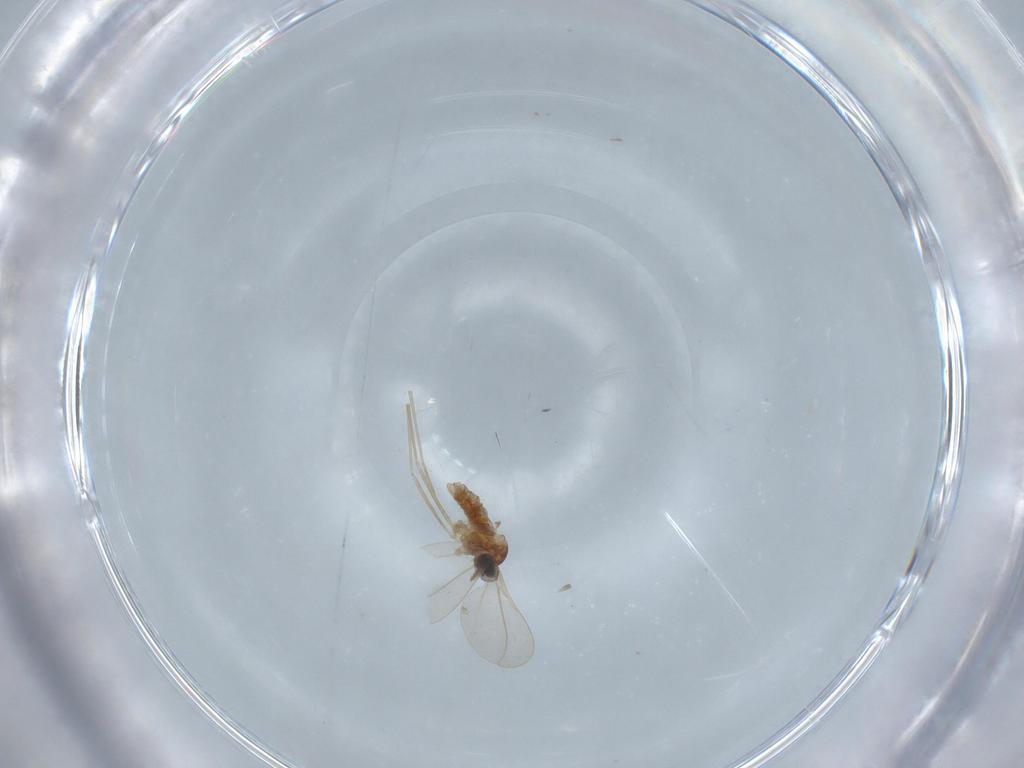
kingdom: Animalia
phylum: Arthropoda
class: Insecta
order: Diptera
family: Cecidomyiidae
